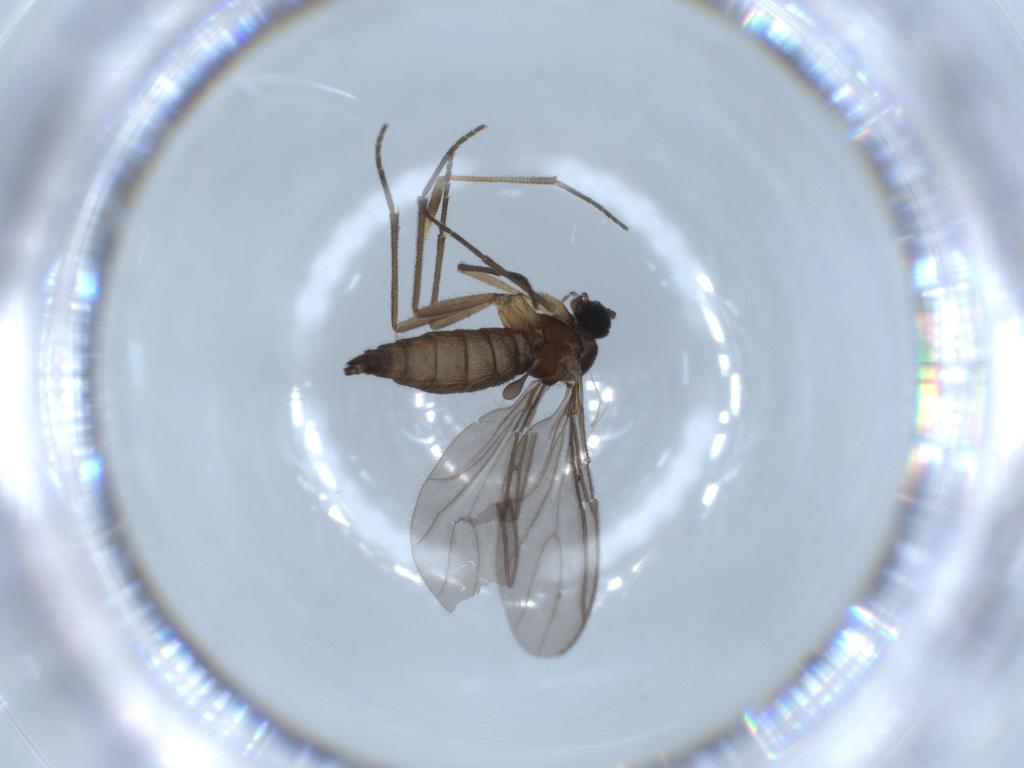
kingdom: Animalia
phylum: Arthropoda
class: Insecta
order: Diptera
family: Sciaridae
